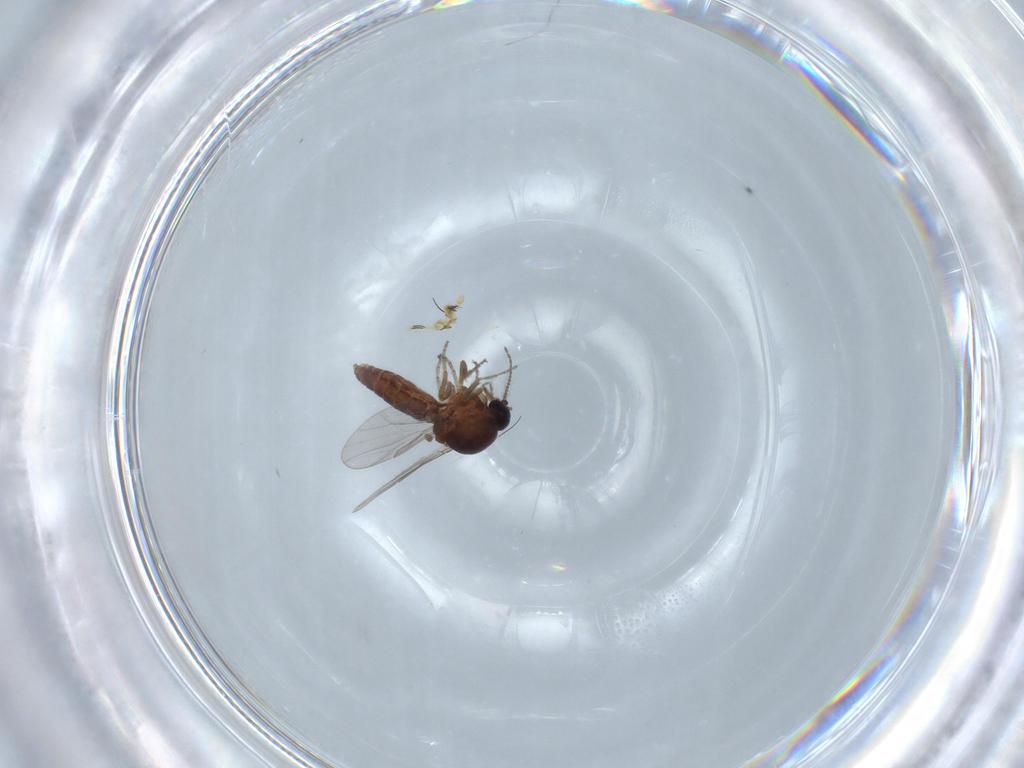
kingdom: Animalia
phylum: Arthropoda
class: Insecta
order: Diptera
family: Ceratopogonidae
